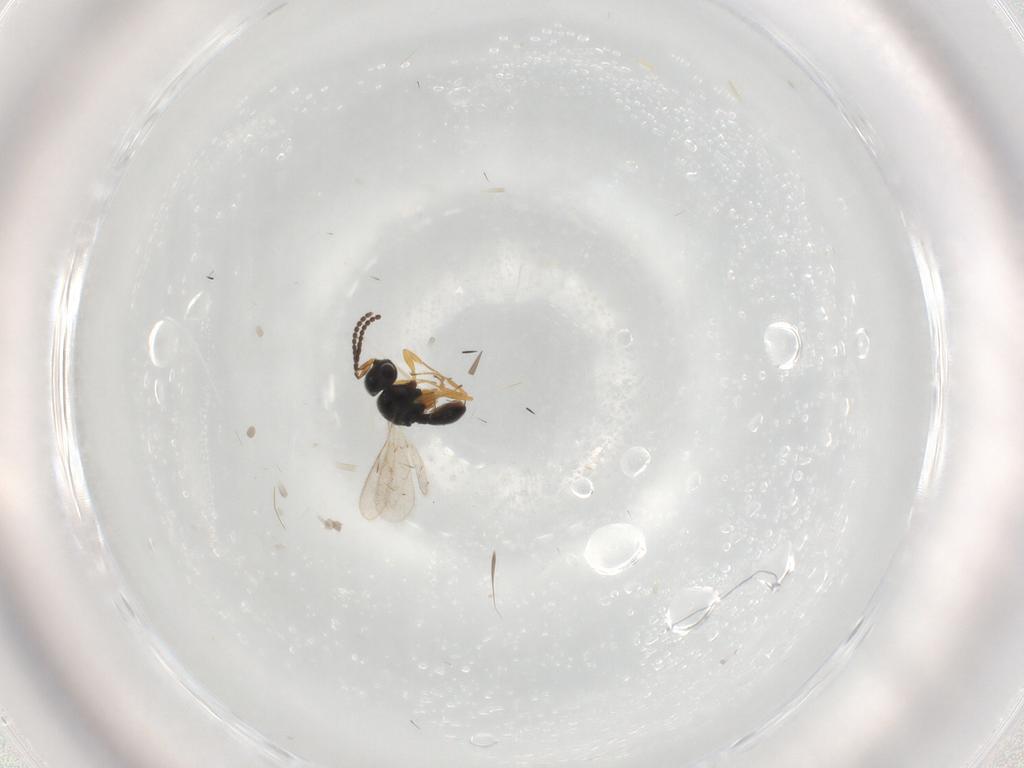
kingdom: Animalia
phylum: Arthropoda
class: Insecta
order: Hymenoptera
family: Scelionidae
